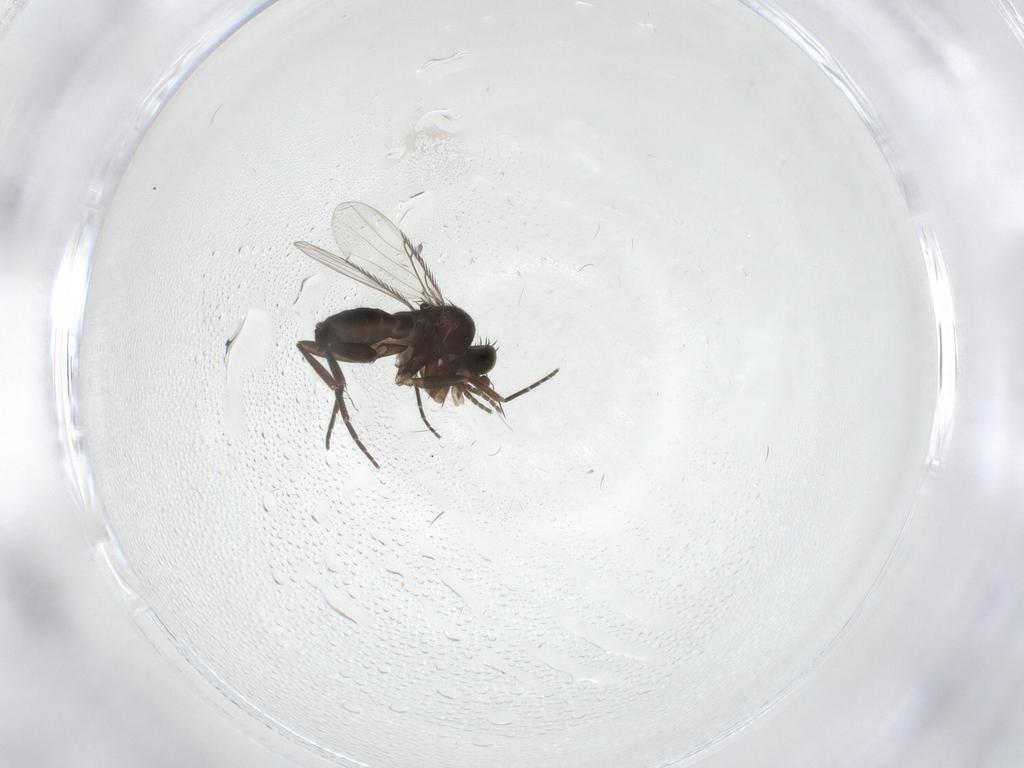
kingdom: Animalia
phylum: Arthropoda
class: Insecta
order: Diptera
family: Phoridae
